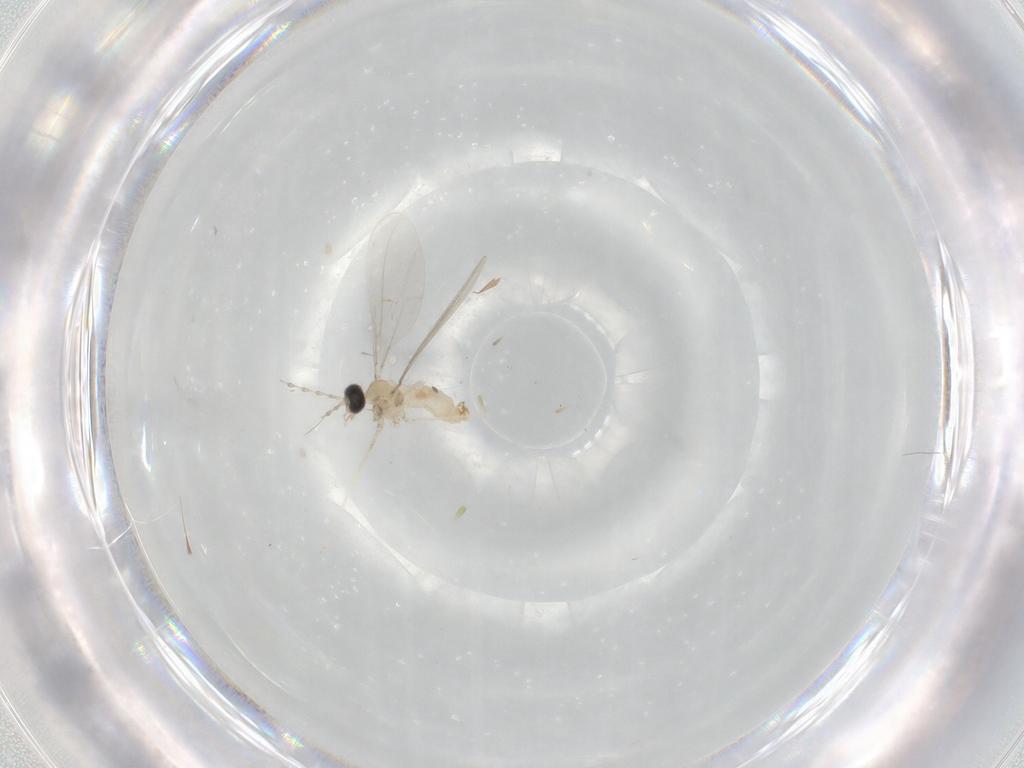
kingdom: Animalia
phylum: Arthropoda
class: Insecta
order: Diptera
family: Cecidomyiidae
